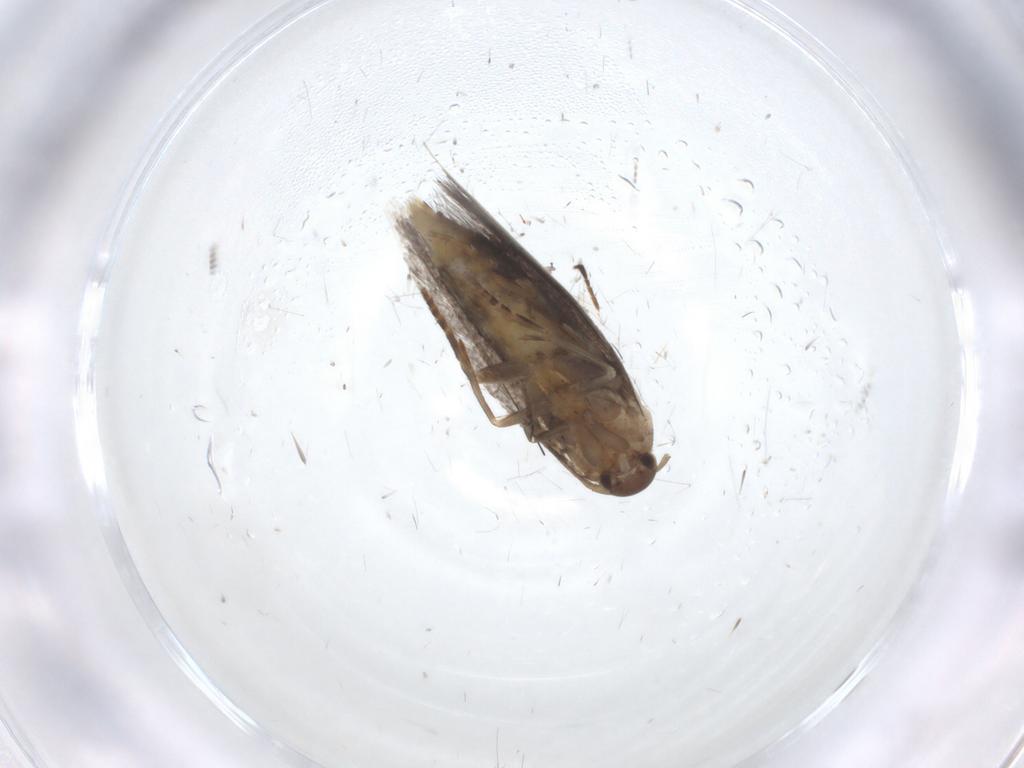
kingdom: Animalia
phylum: Arthropoda
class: Insecta
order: Lepidoptera
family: Elachistidae
